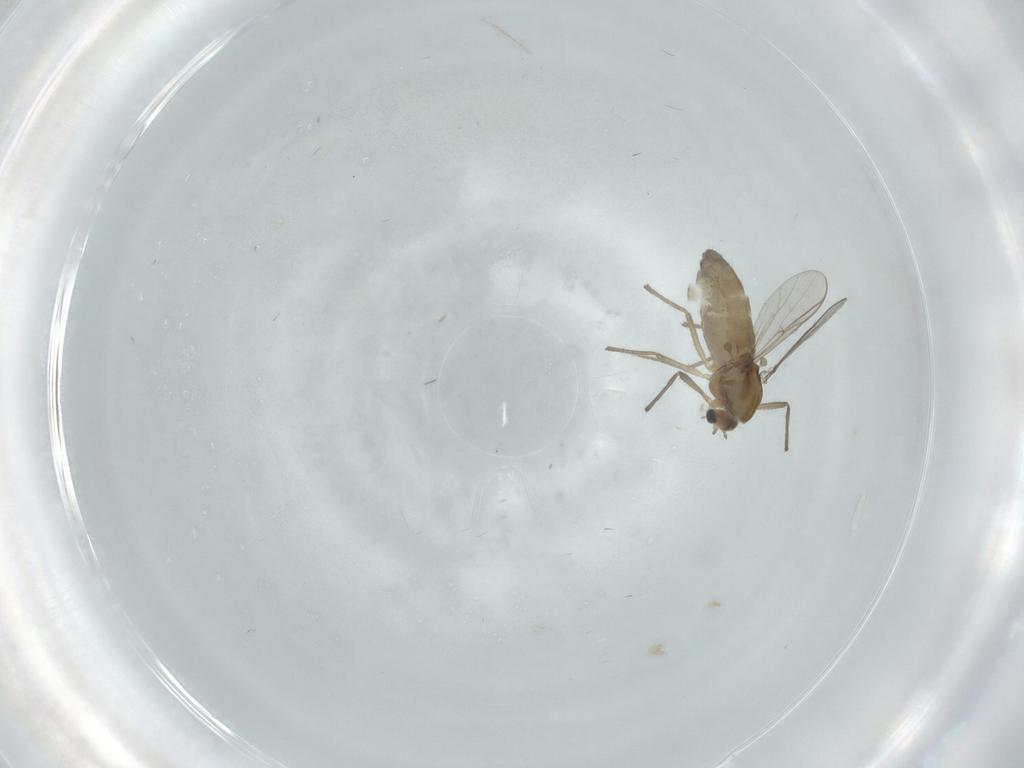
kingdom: Animalia
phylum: Arthropoda
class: Insecta
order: Diptera
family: Chironomidae
